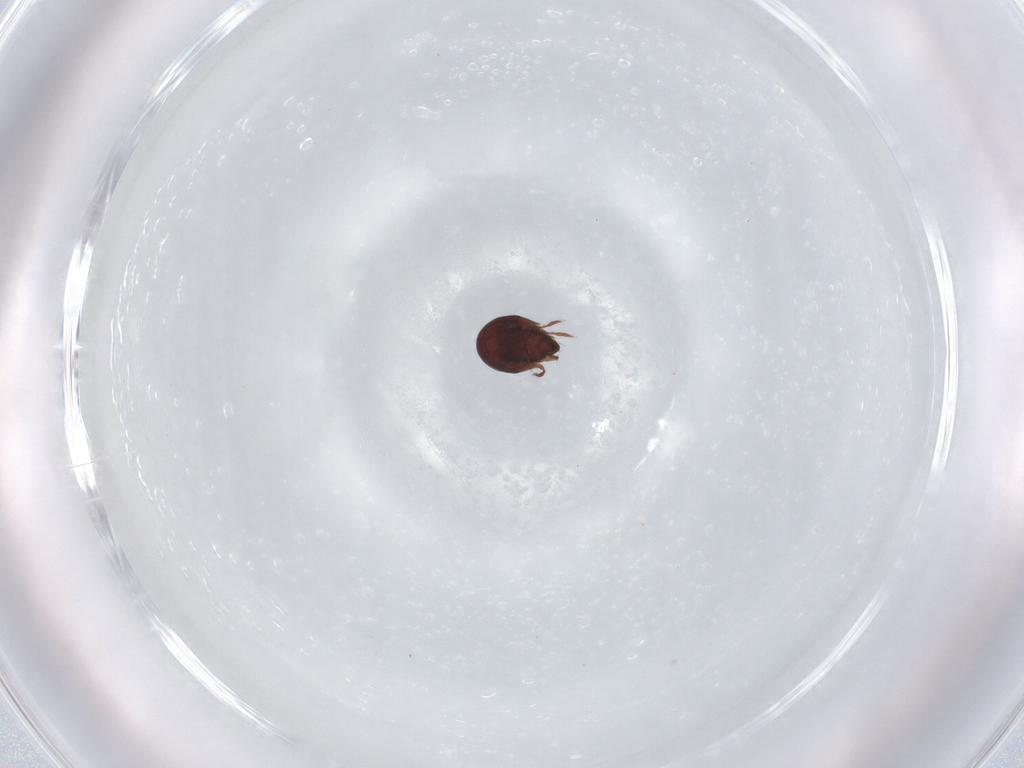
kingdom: Animalia
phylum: Arthropoda
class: Arachnida
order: Sarcoptiformes
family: Ceratozetidae
